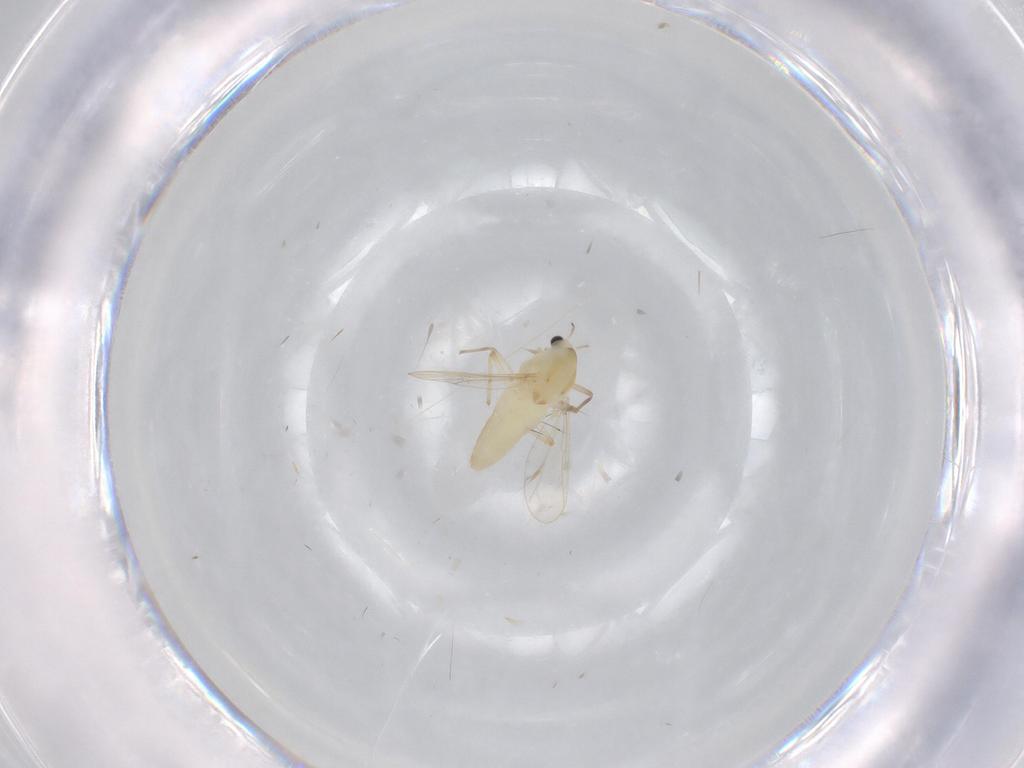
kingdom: Animalia
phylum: Arthropoda
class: Insecta
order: Diptera
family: Chironomidae
